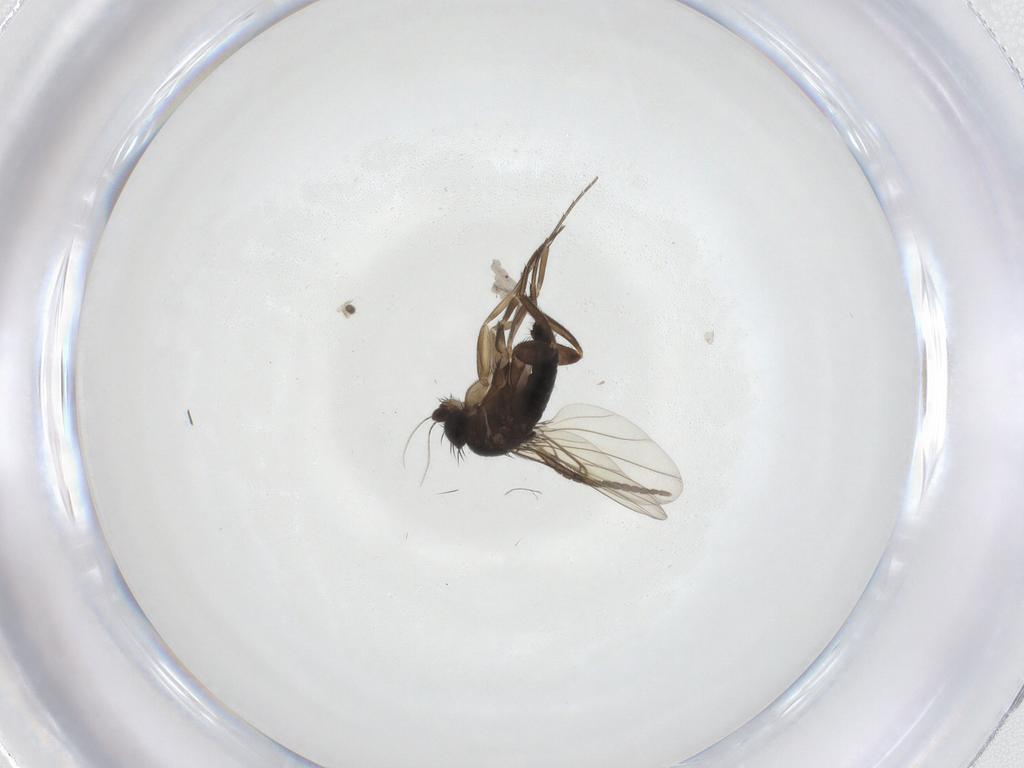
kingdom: Animalia
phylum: Arthropoda
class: Insecta
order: Diptera
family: Phoridae
